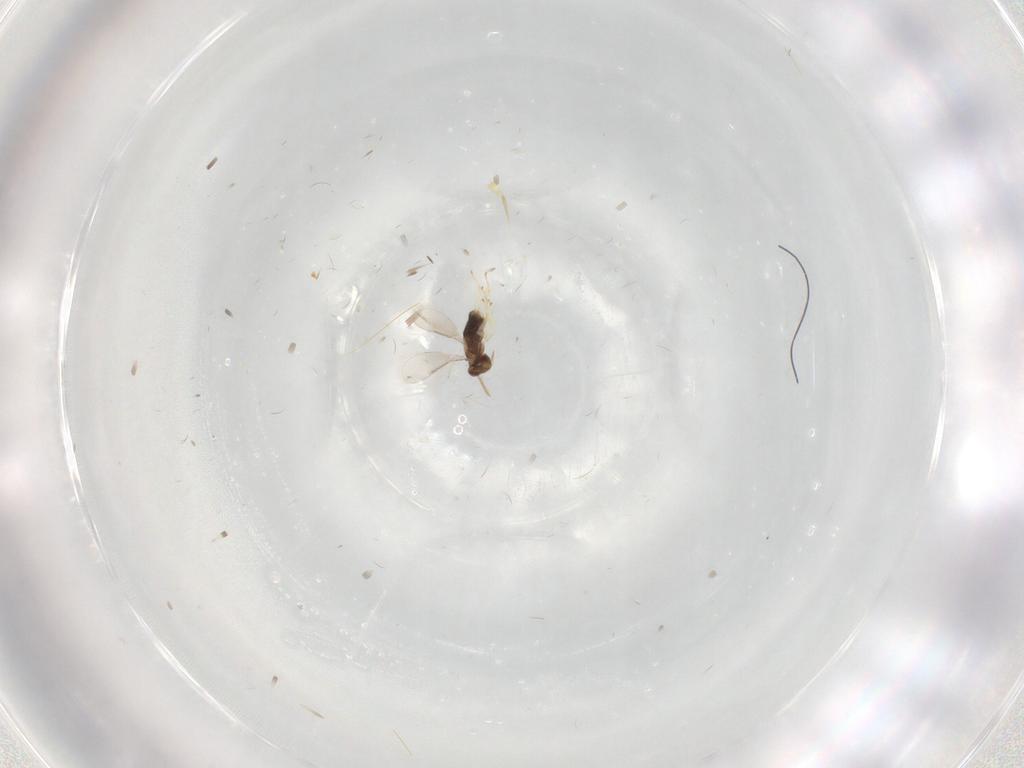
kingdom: Animalia
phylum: Arthropoda
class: Insecta
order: Hymenoptera
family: Aphelinidae
